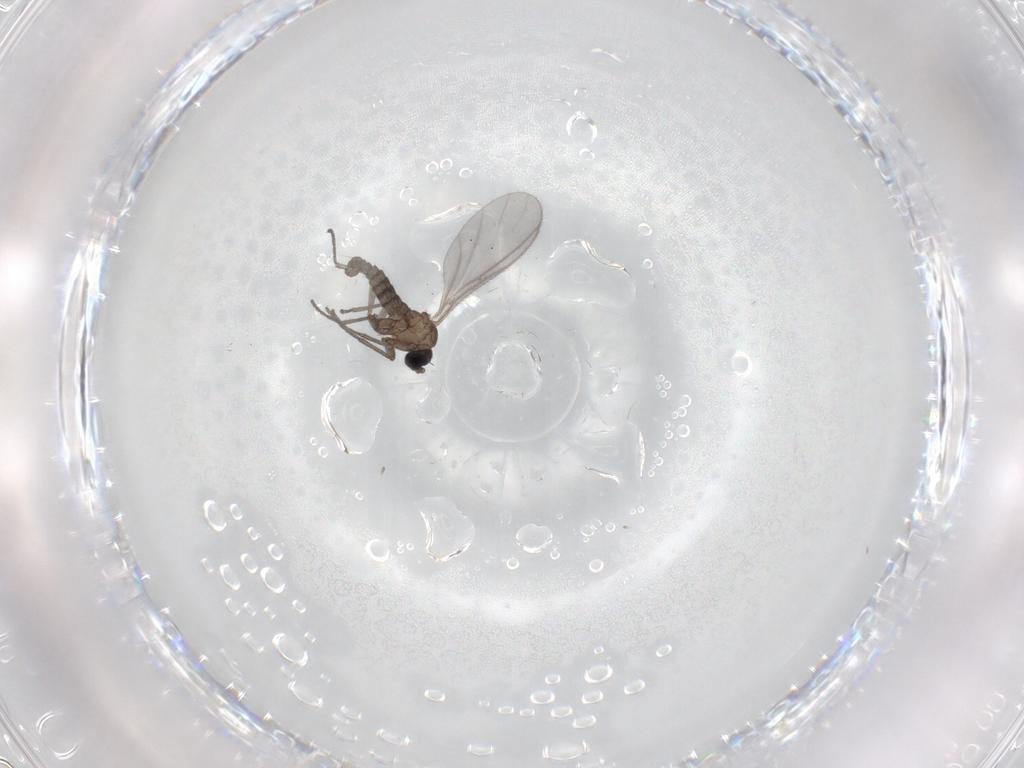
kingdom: Animalia
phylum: Arthropoda
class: Insecta
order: Diptera
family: Sciaridae
